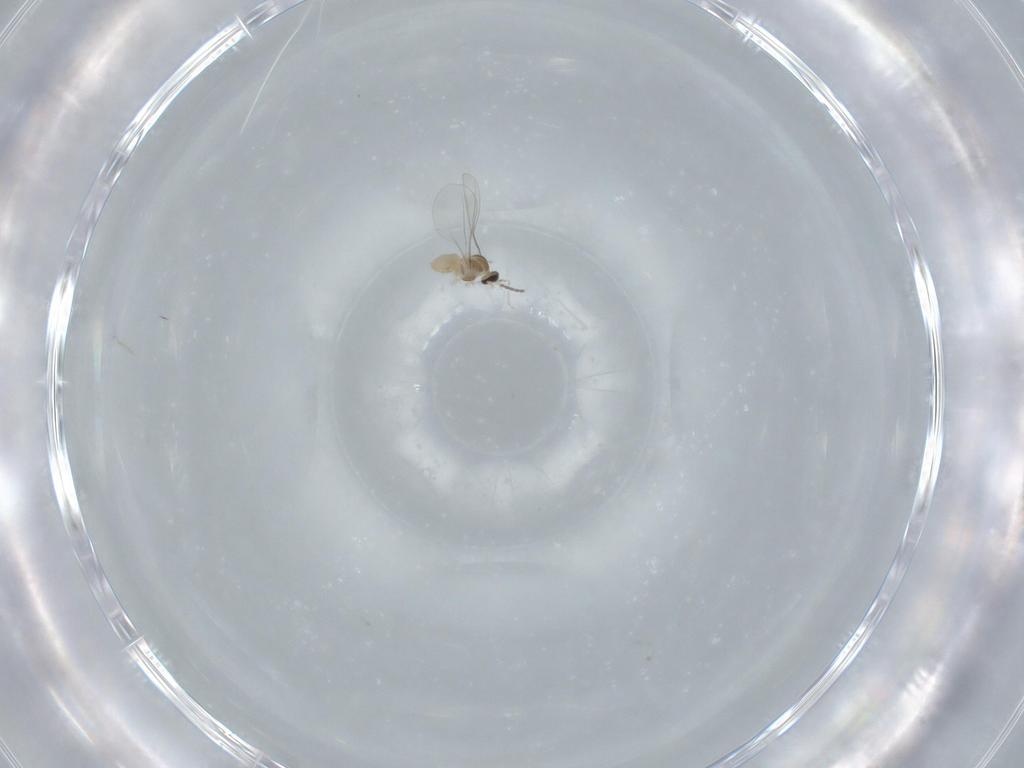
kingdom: Animalia
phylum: Arthropoda
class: Insecta
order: Diptera
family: Cecidomyiidae
